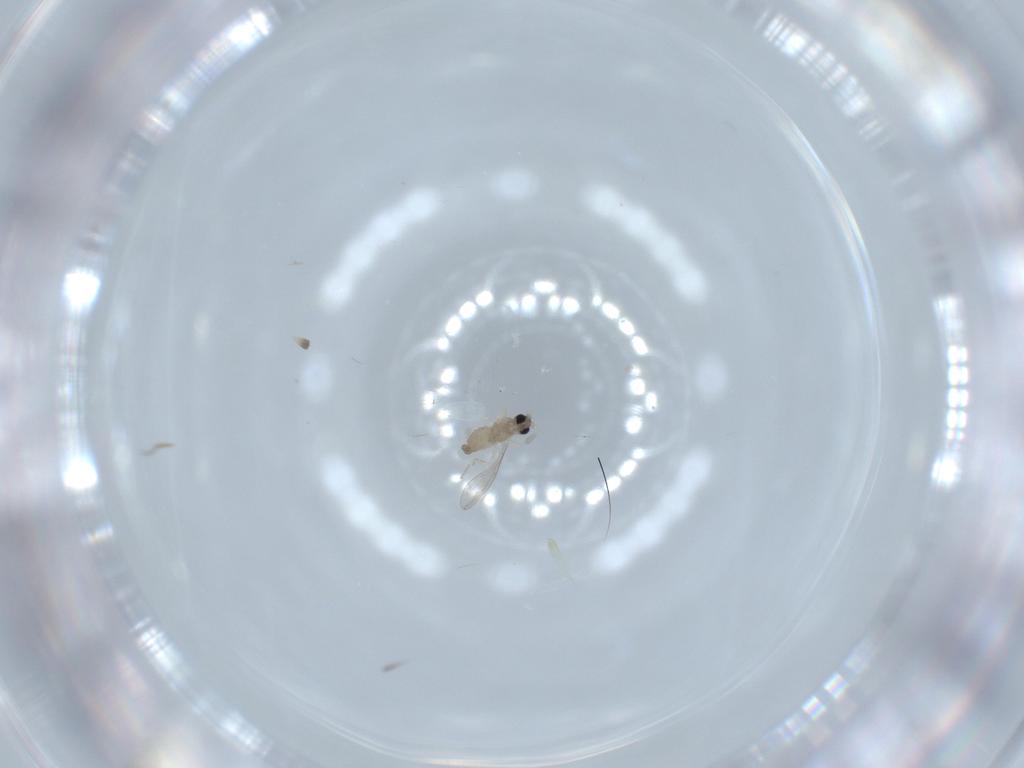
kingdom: Animalia
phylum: Arthropoda
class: Insecta
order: Diptera
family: Cecidomyiidae
